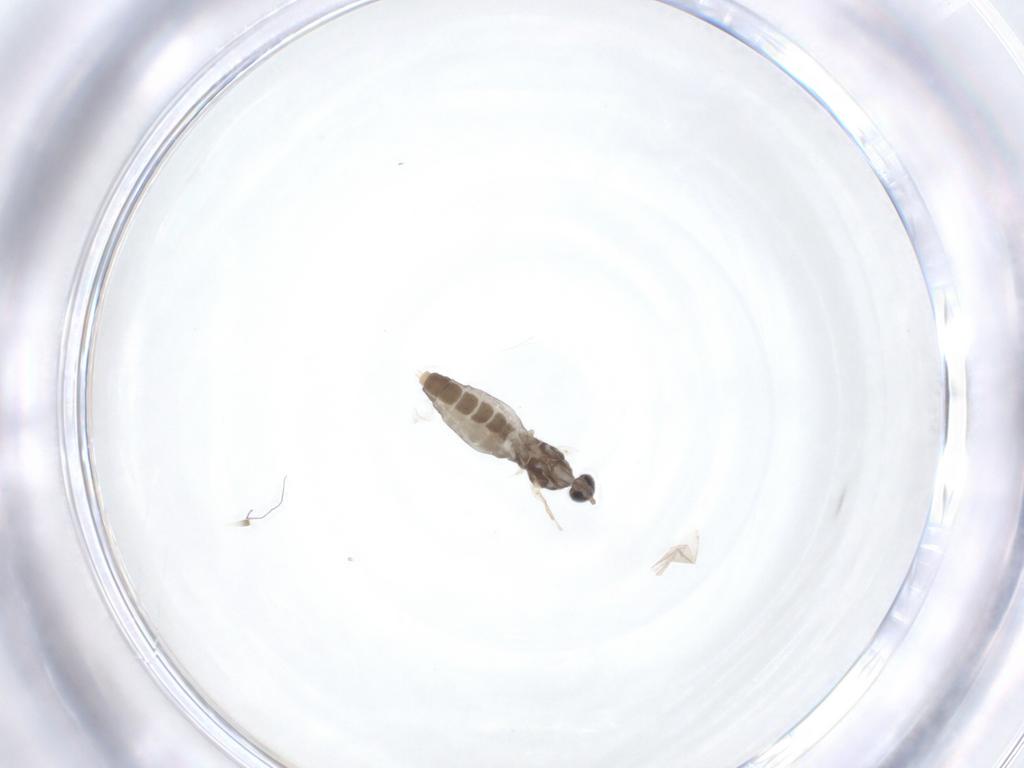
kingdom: Animalia
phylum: Arthropoda
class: Insecta
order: Diptera
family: Cecidomyiidae
